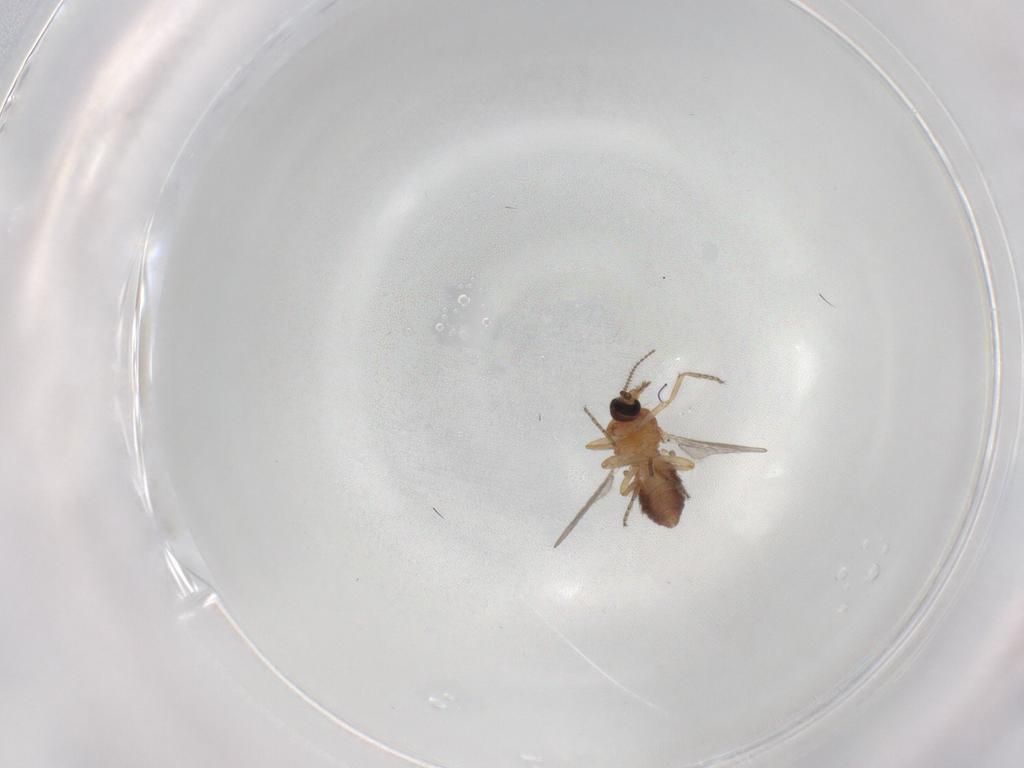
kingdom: Animalia
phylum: Arthropoda
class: Insecta
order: Diptera
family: Ceratopogonidae
